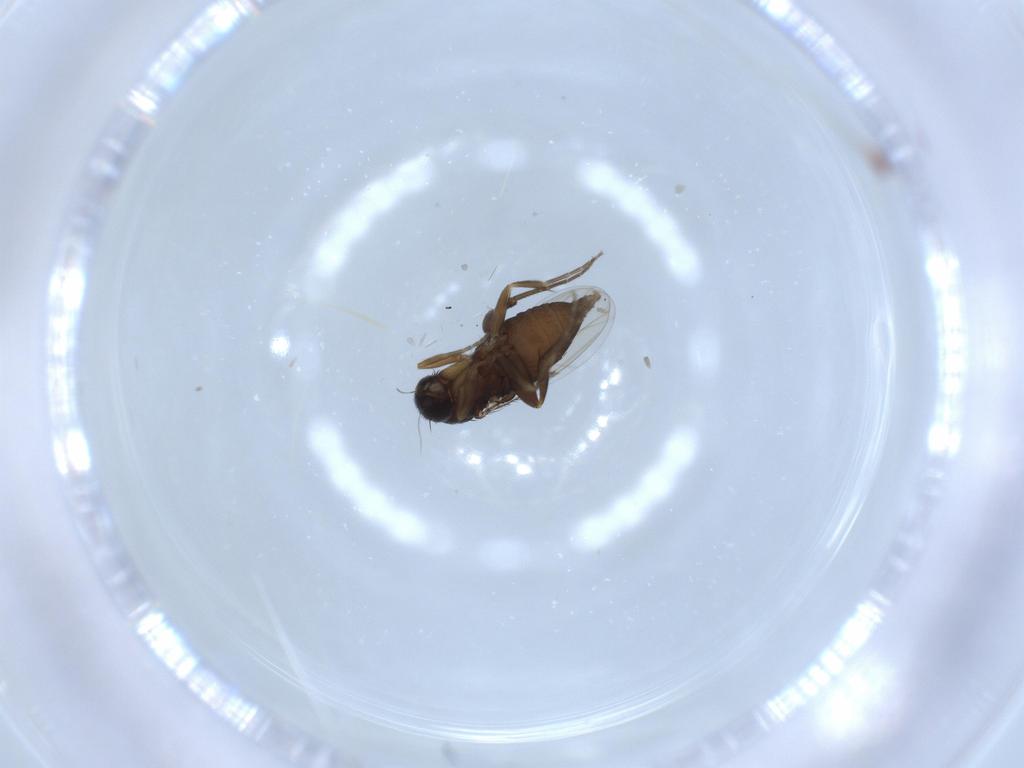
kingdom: Animalia
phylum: Arthropoda
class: Insecta
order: Diptera
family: Phoridae
